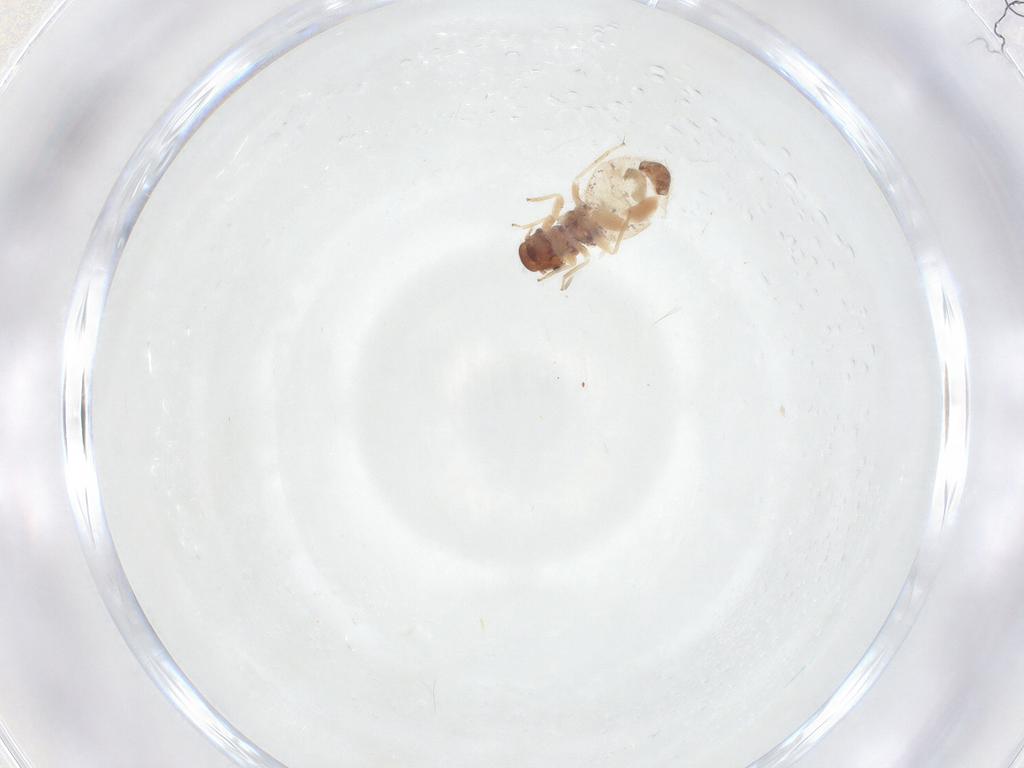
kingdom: Animalia
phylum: Arthropoda
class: Insecta
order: Psocodea
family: Archipsocidae
